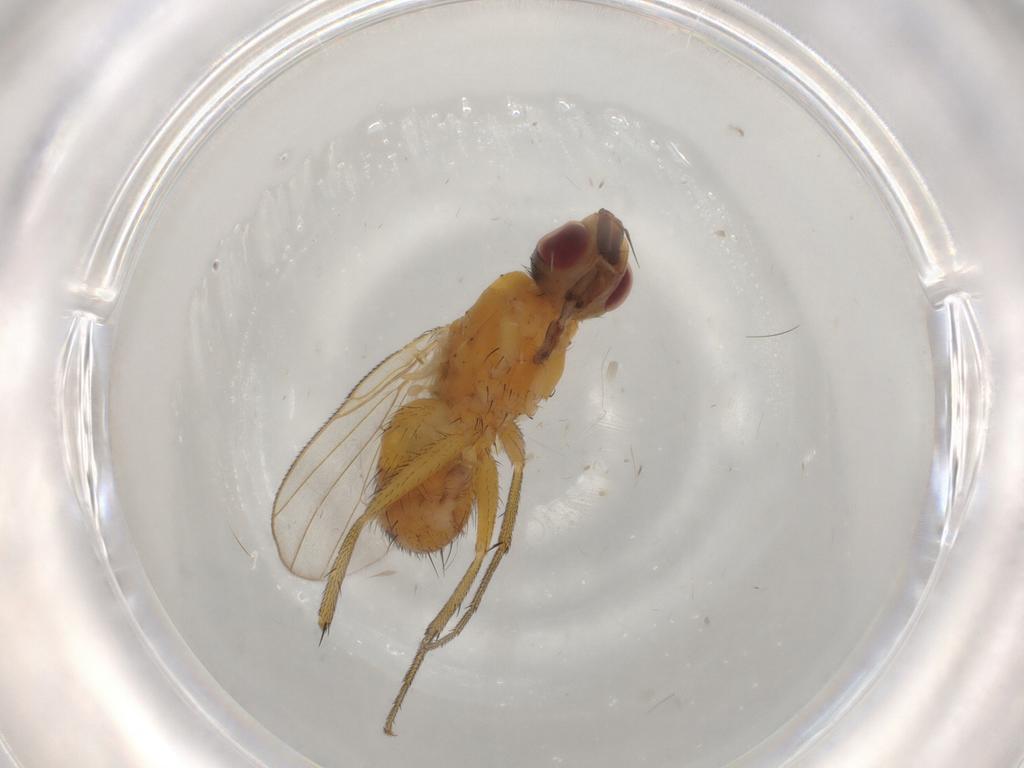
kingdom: Animalia
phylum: Arthropoda
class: Insecta
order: Diptera
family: Muscidae
